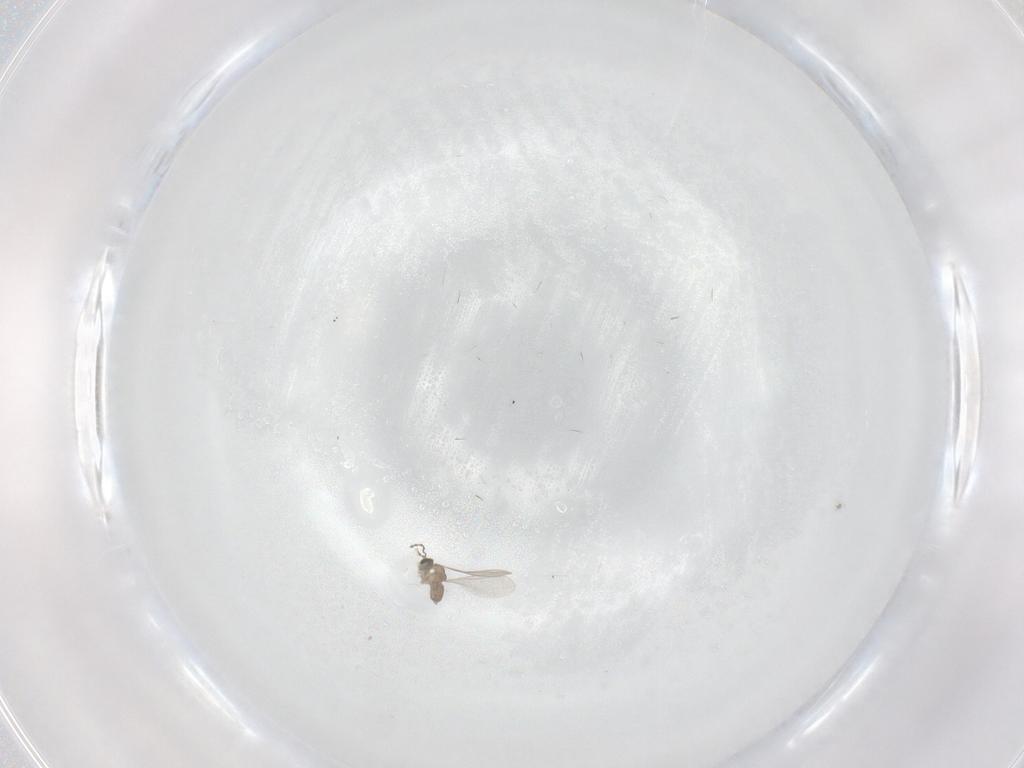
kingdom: Animalia
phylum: Arthropoda
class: Insecta
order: Diptera
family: Cecidomyiidae
